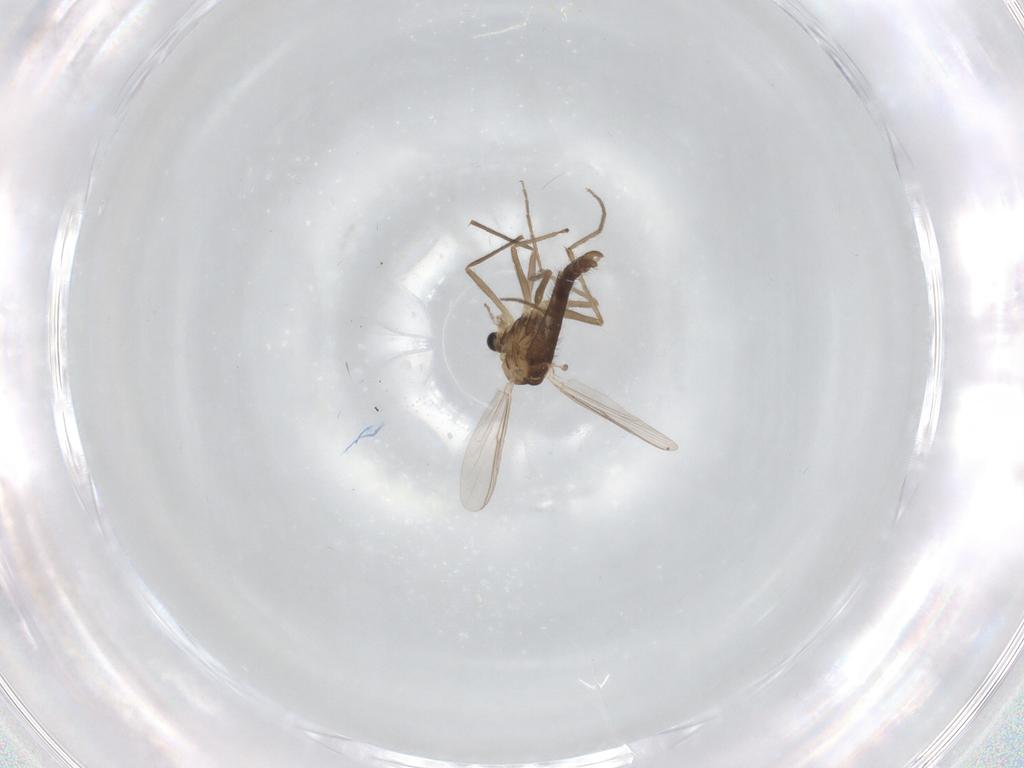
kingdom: Animalia
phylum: Arthropoda
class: Insecta
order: Diptera
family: Chironomidae
